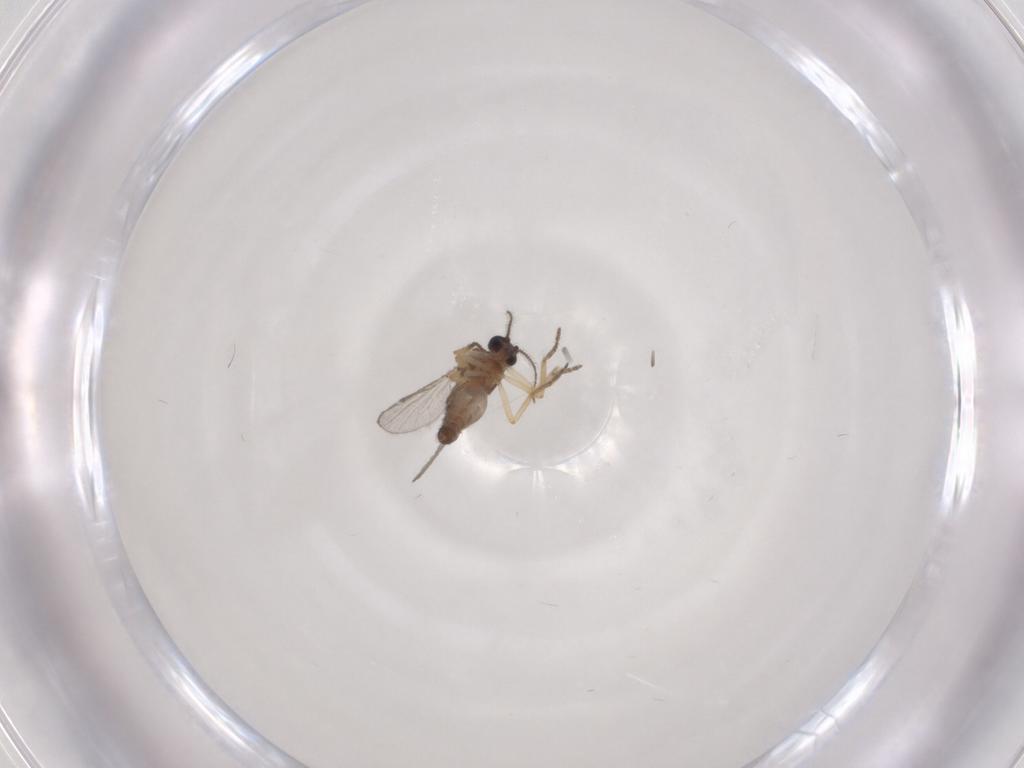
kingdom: Animalia
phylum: Arthropoda
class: Insecta
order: Diptera
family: Ceratopogonidae
